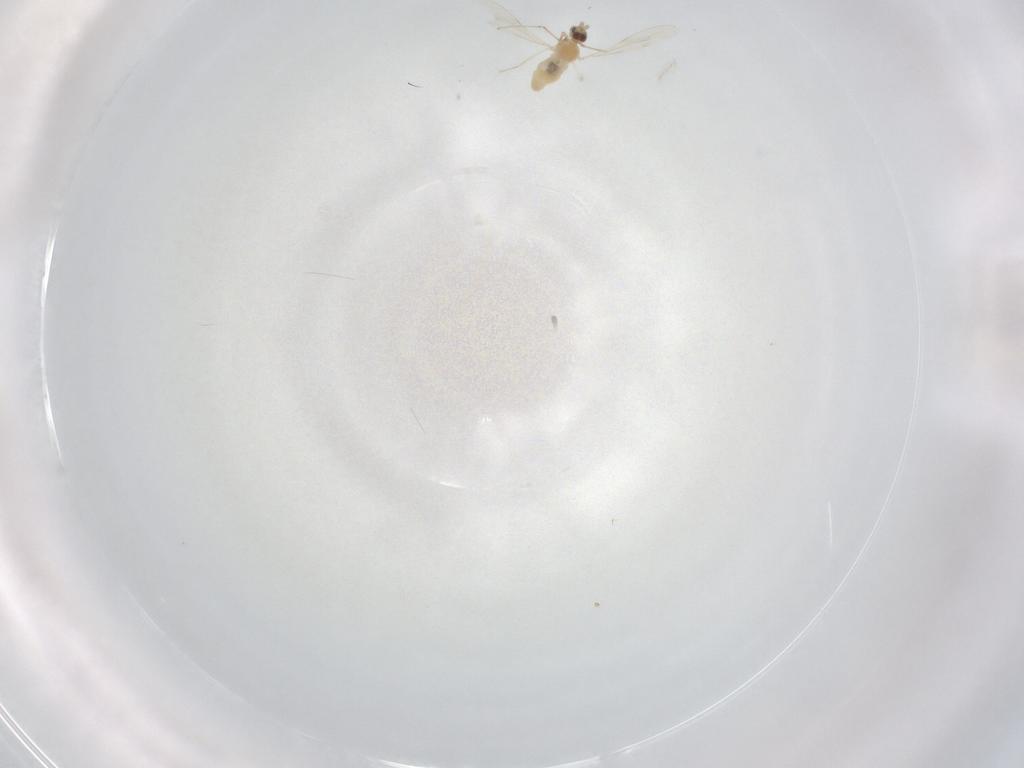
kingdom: Animalia
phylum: Arthropoda
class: Insecta
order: Diptera
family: Cecidomyiidae
